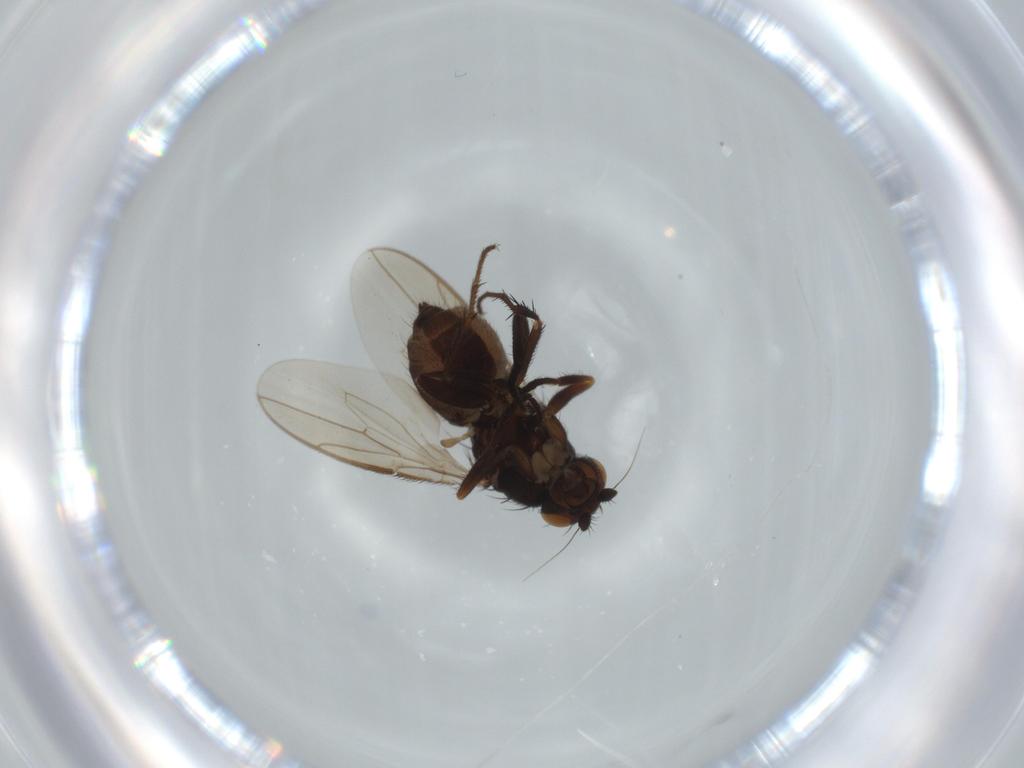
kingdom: Animalia
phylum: Arthropoda
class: Insecta
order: Diptera
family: Sphaeroceridae
